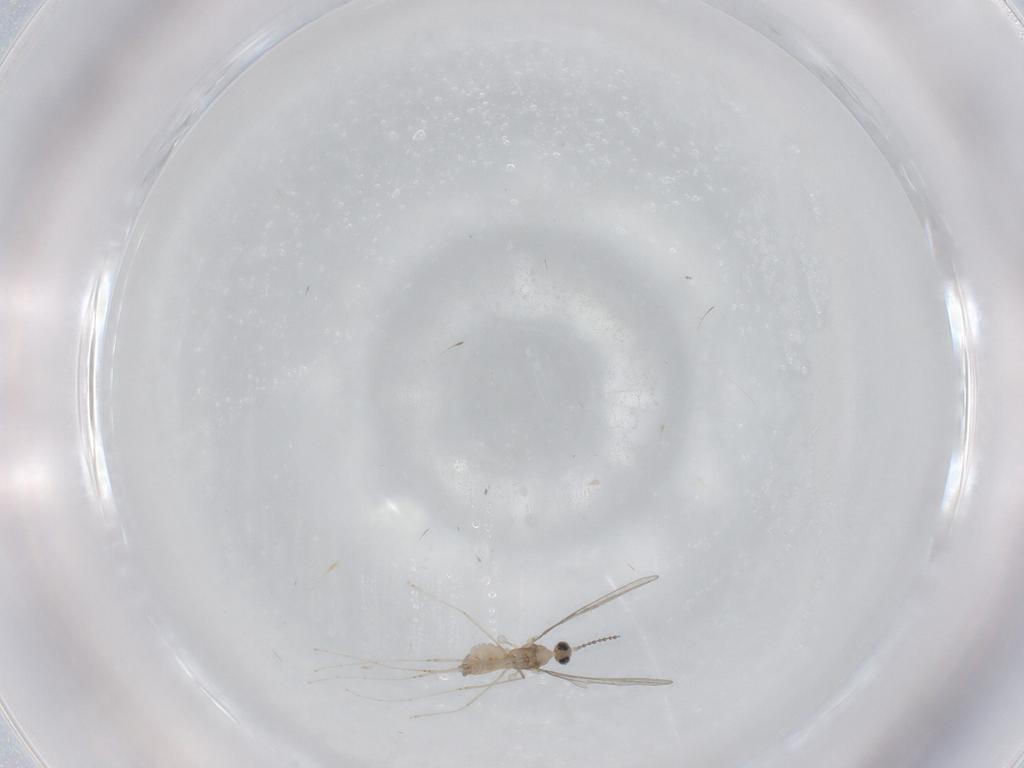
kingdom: Animalia
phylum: Arthropoda
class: Insecta
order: Diptera
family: Cecidomyiidae
